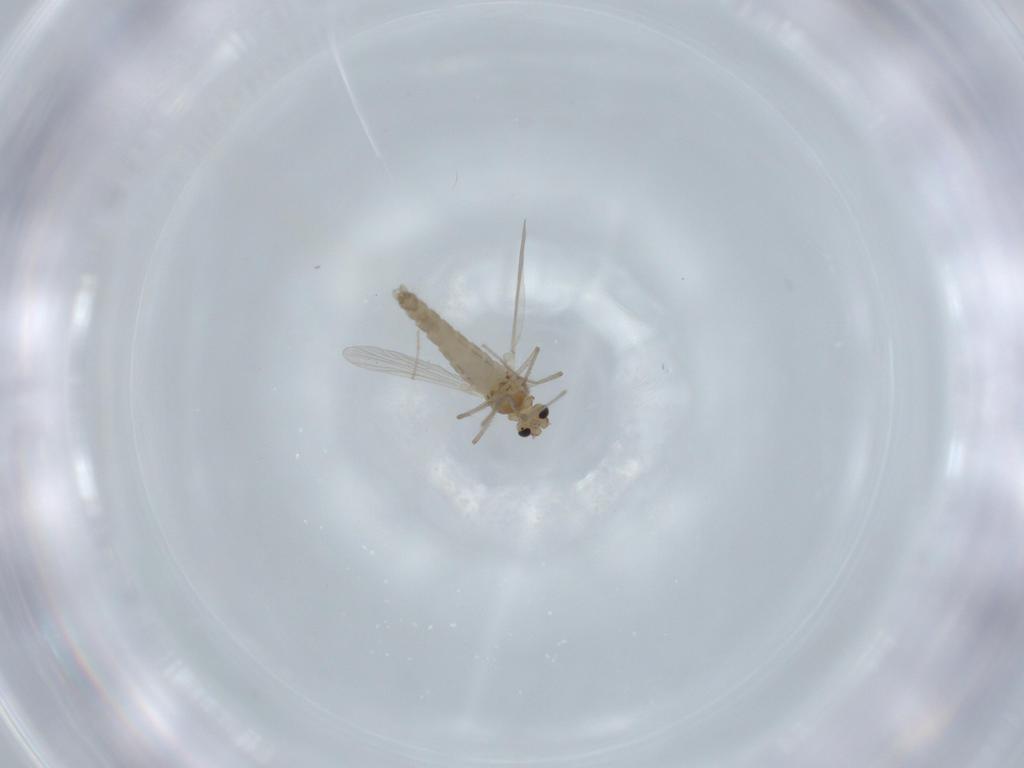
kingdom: Animalia
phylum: Arthropoda
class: Insecta
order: Diptera
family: Chironomidae
